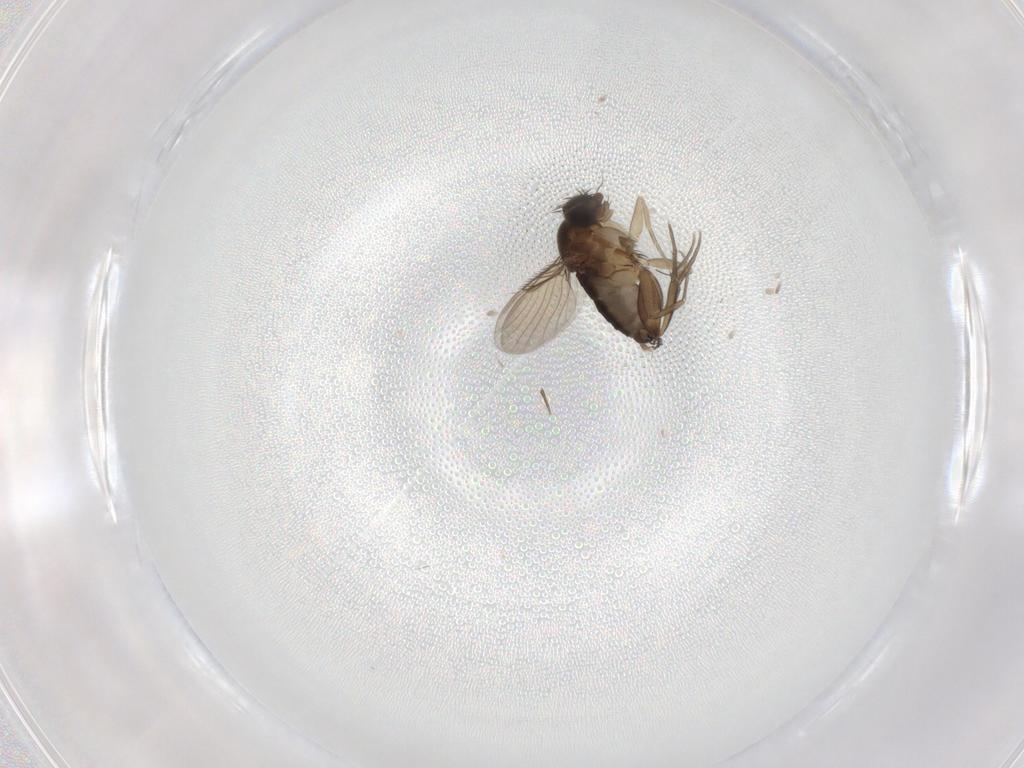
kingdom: Animalia
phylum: Arthropoda
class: Insecta
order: Diptera
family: Phoridae
